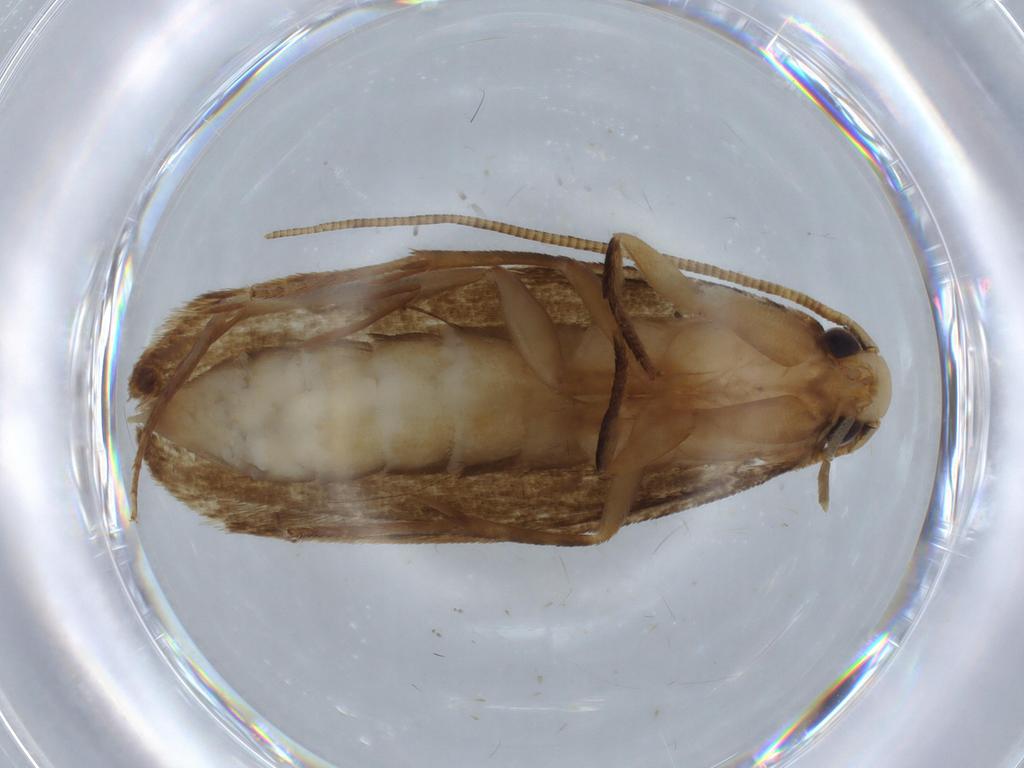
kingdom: Animalia
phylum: Arthropoda
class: Insecta
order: Lepidoptera
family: Tineidae
